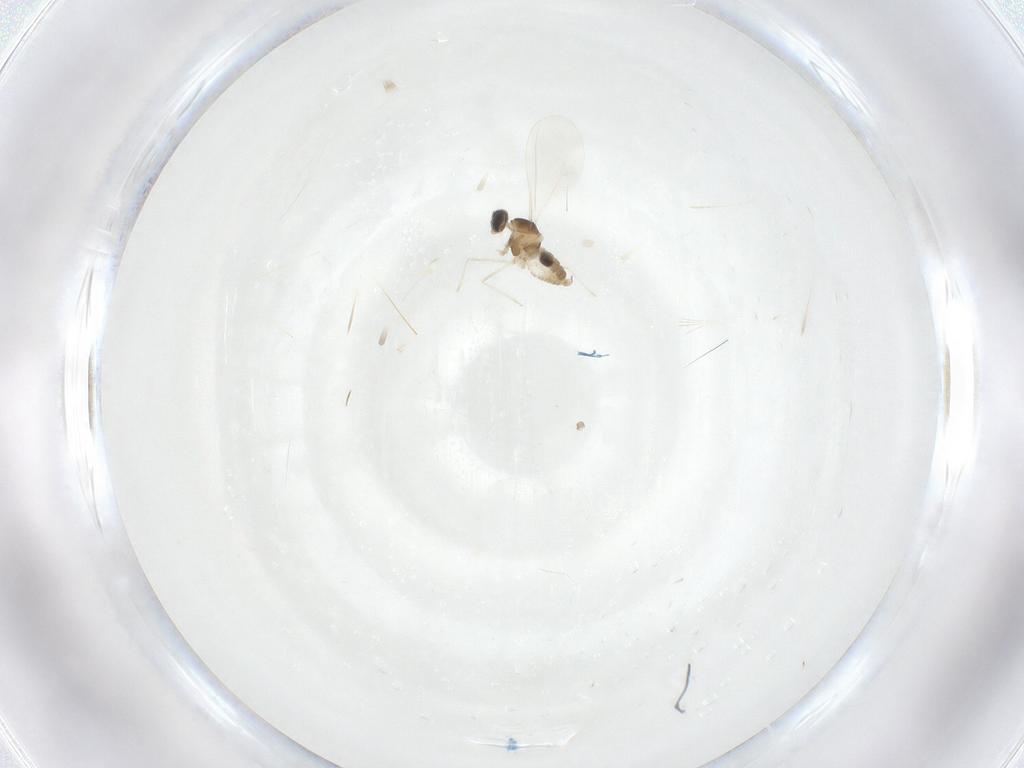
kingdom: Animalia
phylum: Arthropoda
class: Insecta
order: Diptera
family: Cecidomyiidae
